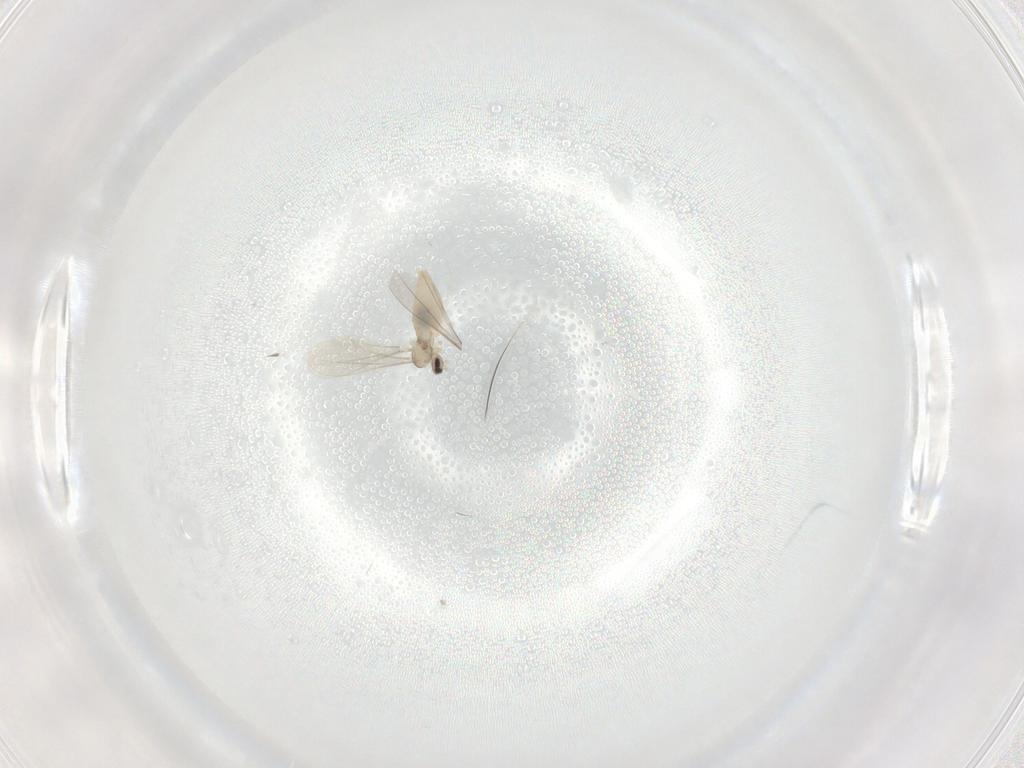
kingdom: Animalia
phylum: Arthropoda
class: Insecta
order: Diptera
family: Cecidomyiidae
